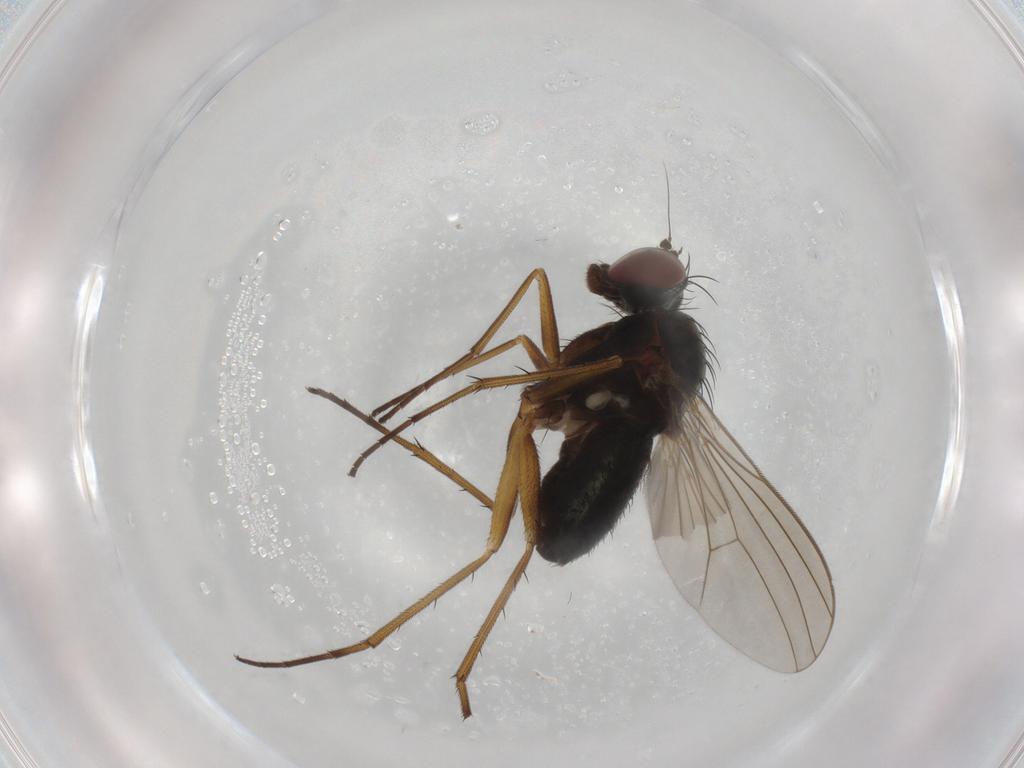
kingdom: Animalia
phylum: Arthropoda
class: Insecta
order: Diptera
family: Dolichopodidae
